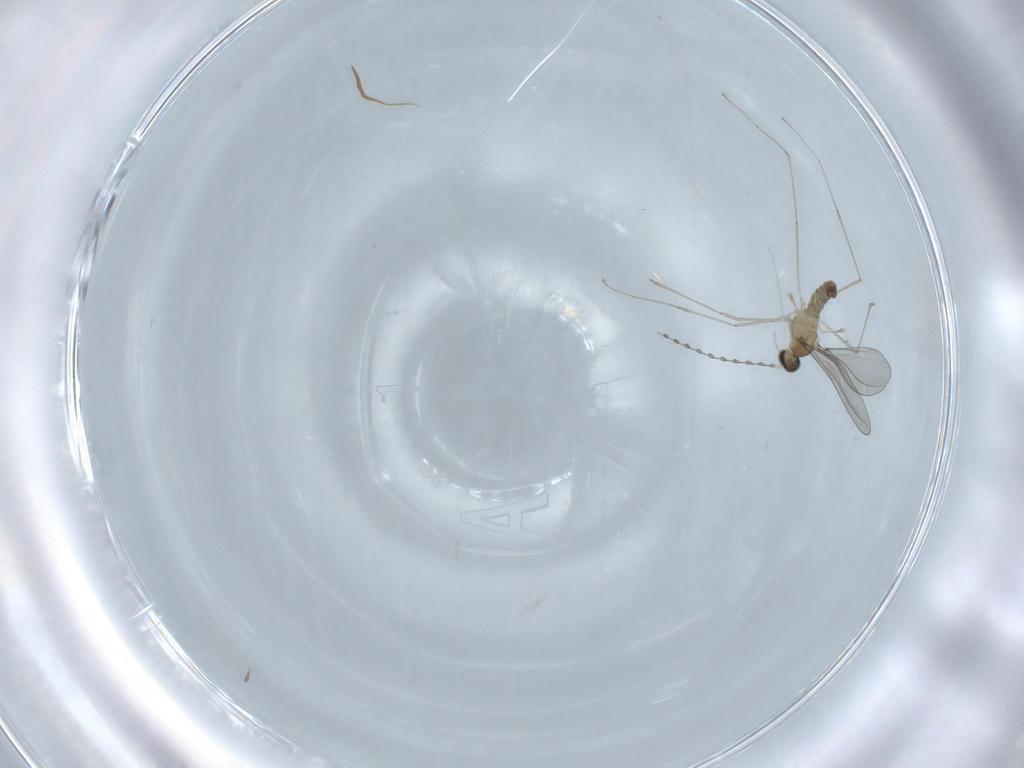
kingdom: Animalia
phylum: Arthropoda
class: Insecta
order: Diptera
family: Cecidomyiidae
